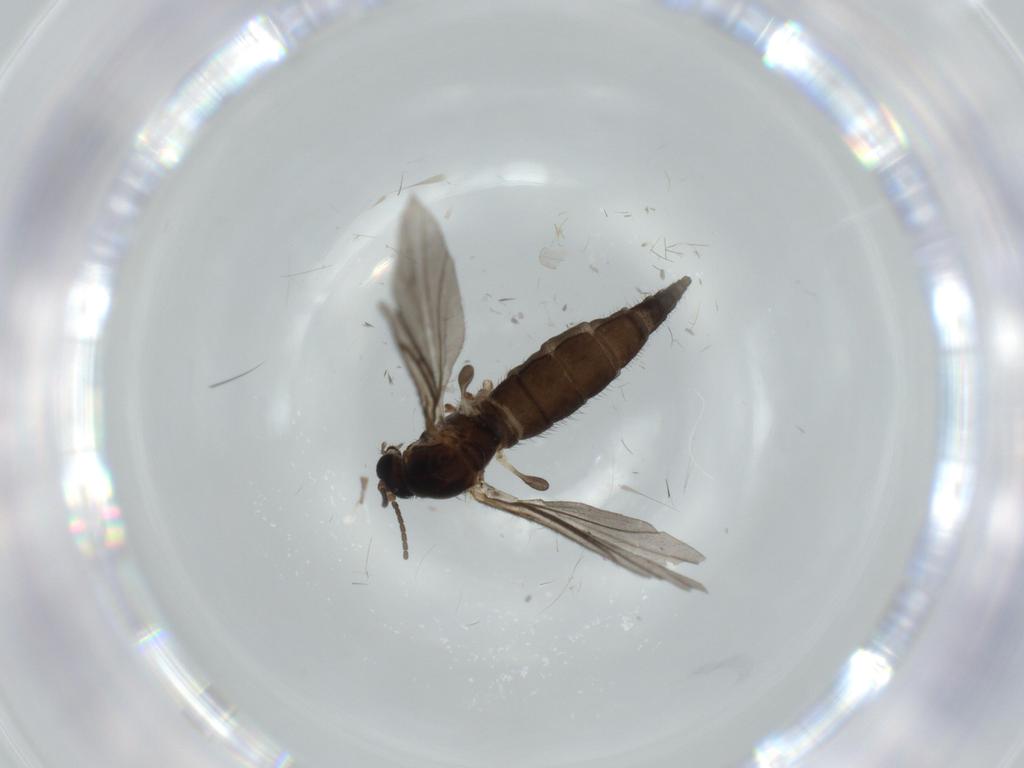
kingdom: Animalia
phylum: Arthropoda
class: Insecta
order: Diptera
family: Sciaridae
